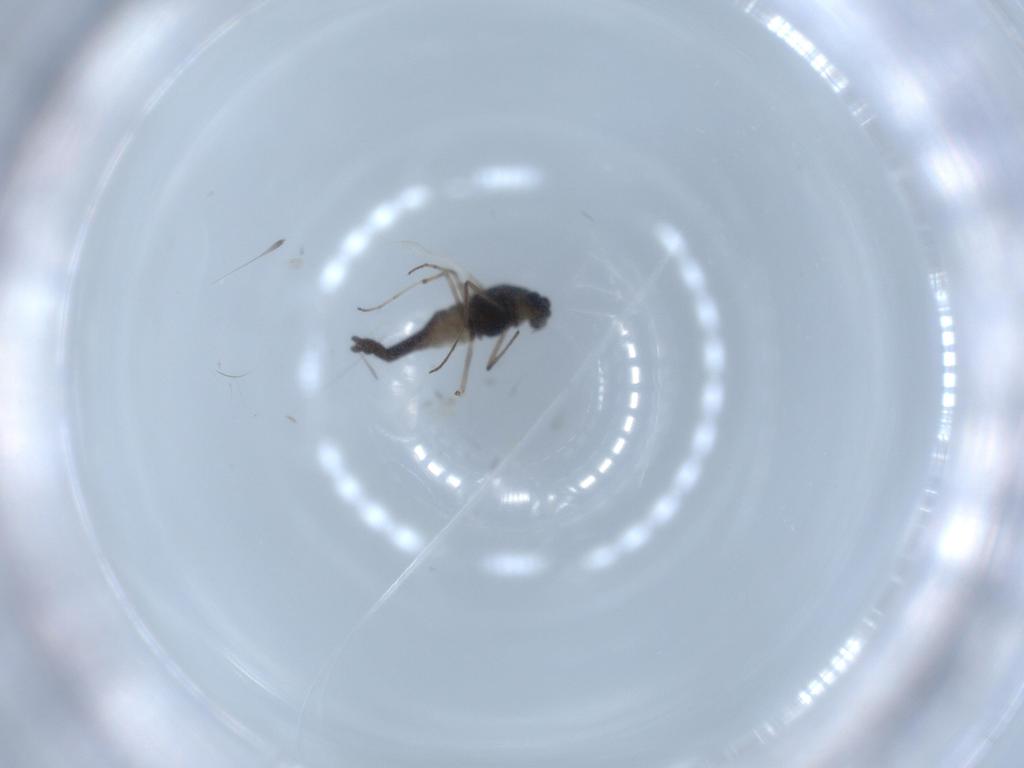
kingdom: Animalia
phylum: Arthropoda
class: Insecta
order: Diptera
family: Chironomidae
